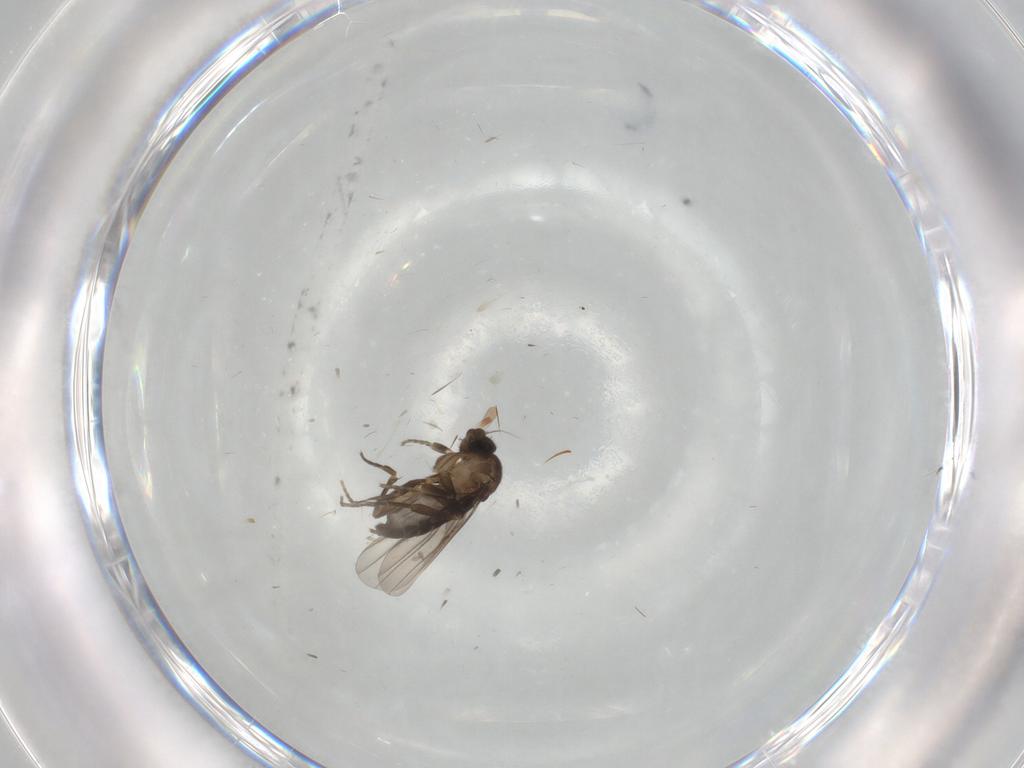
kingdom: Animalia
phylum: Arthropoda
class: Insecta
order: Diptera
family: Phoridae
